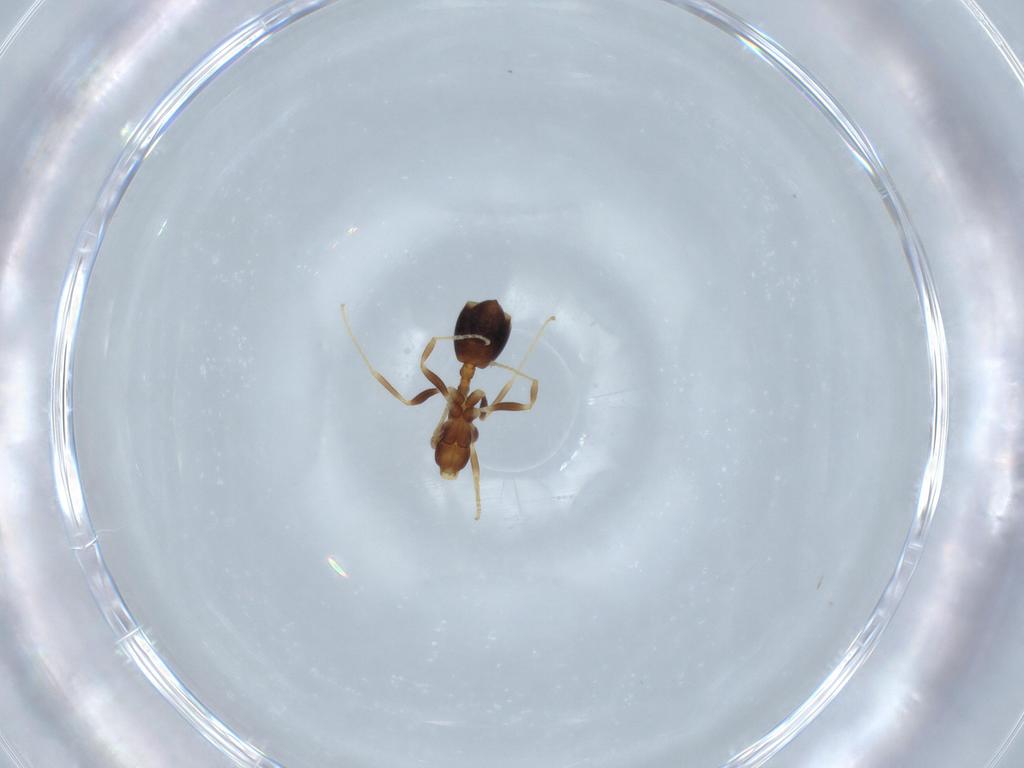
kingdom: Animalia
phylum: Arthropoda
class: Insecta
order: Hymenoptera
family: Formicidae
